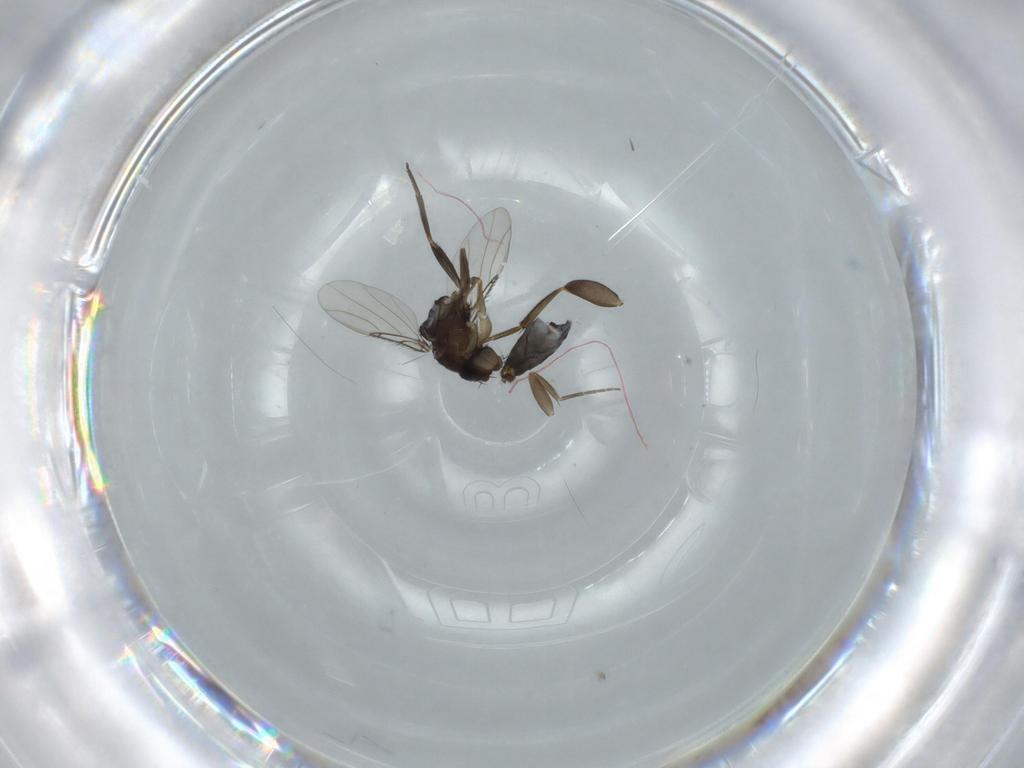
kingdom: Animalia
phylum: Arthropoda
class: Insecta
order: Diptera
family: Phoridae
